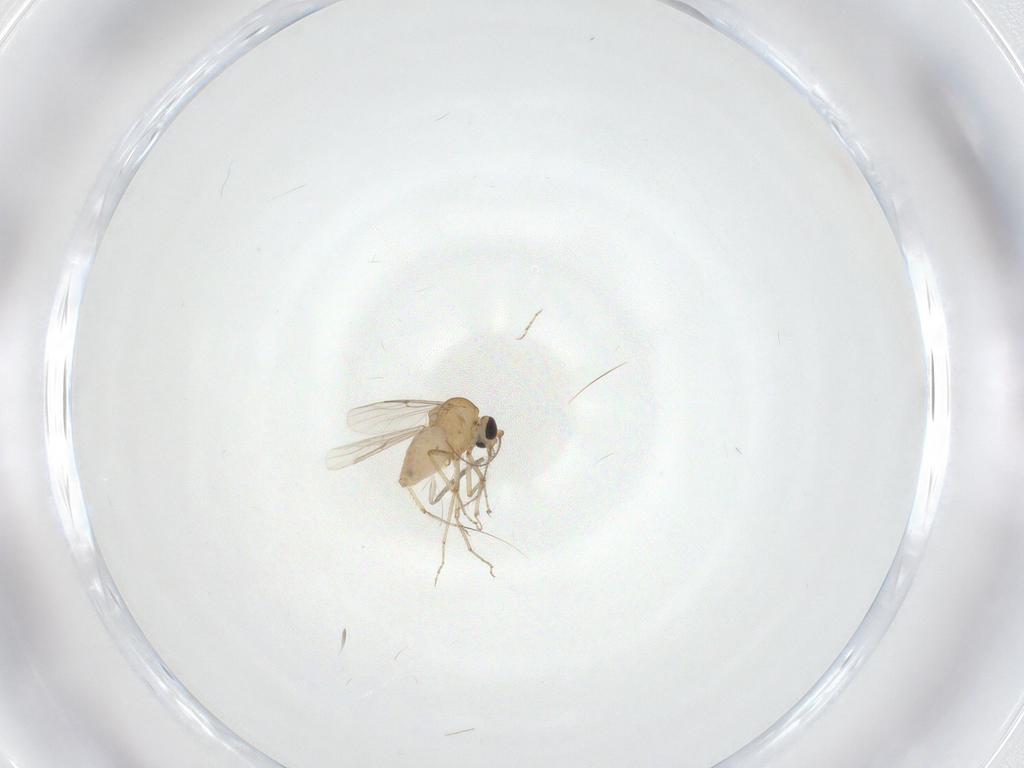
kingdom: Animalia
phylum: Arthropoda
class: Insecta
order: Diptera
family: Psychodidae
